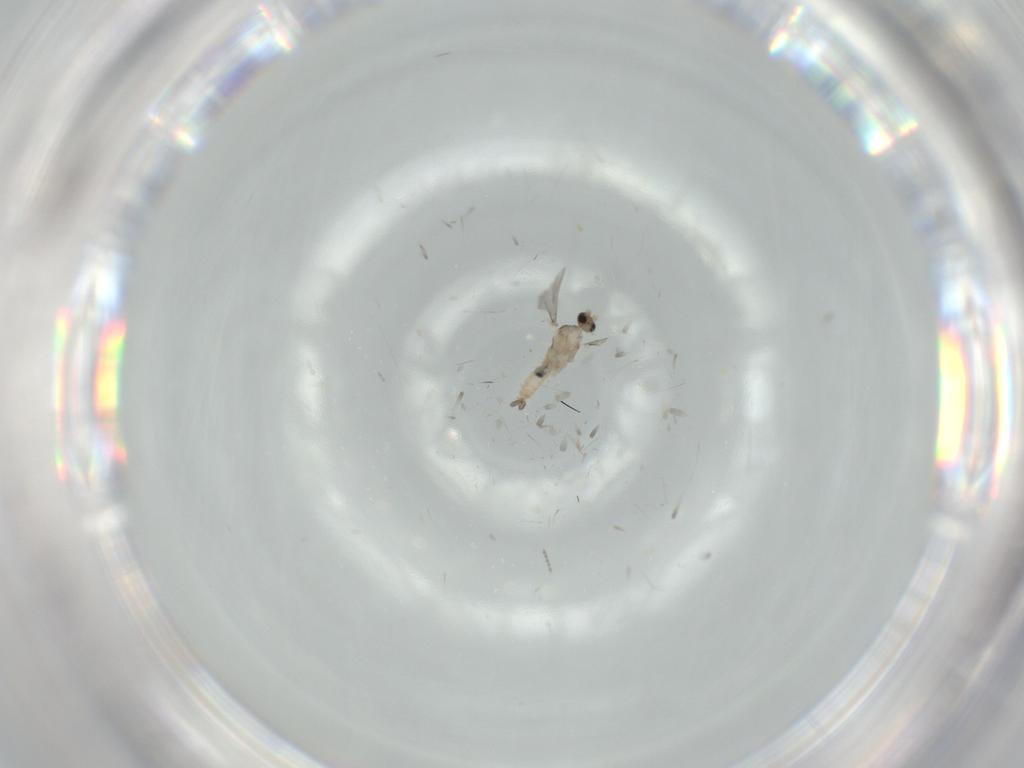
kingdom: Animalia
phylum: Arthropoda
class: Insecta
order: Diptera
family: Cecidomyiidae
